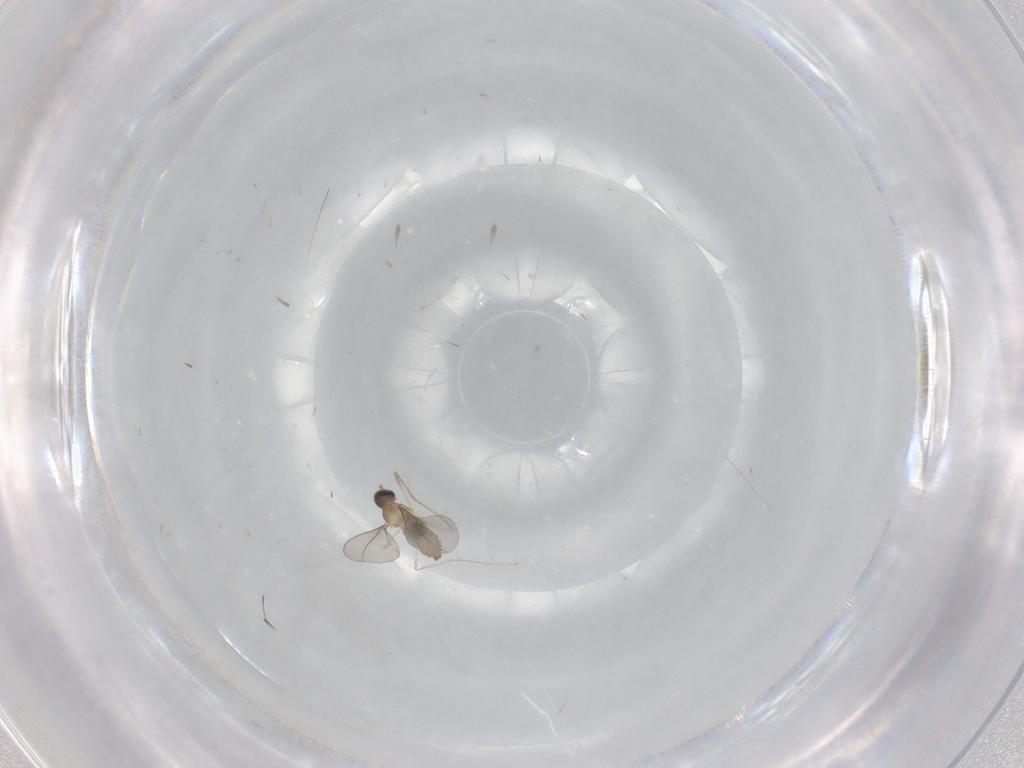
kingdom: Animalia
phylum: Arthropoda
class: Insecta
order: Diptera
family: Cecidomyiidae
